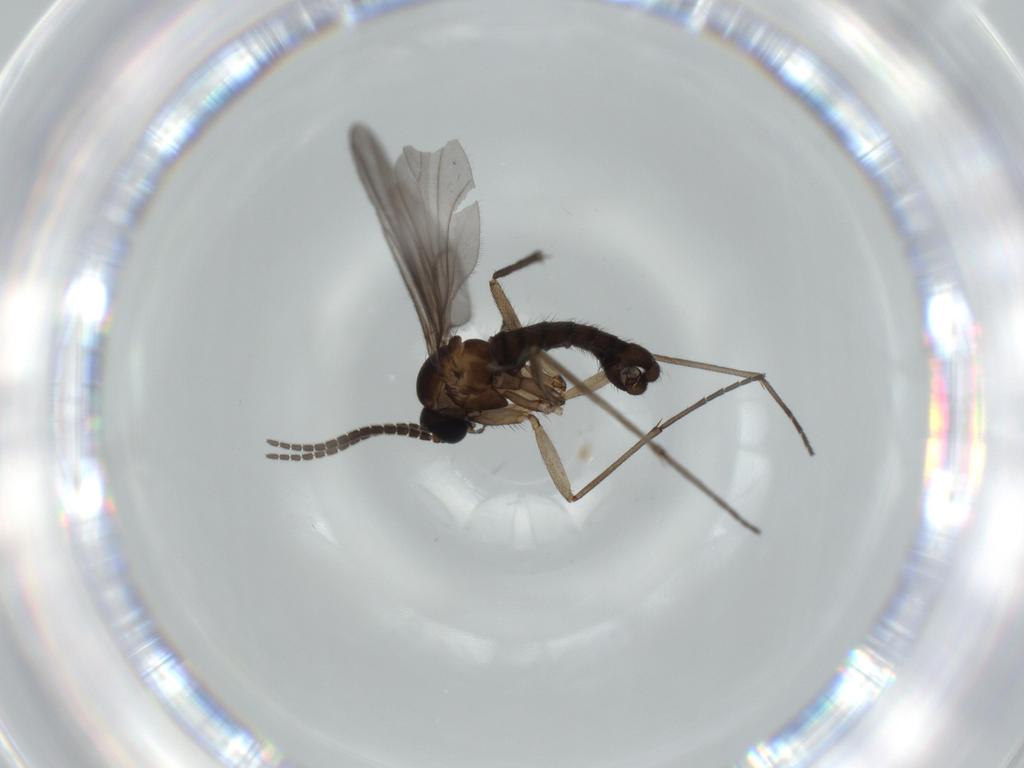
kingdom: Animalia
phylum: Arthropoda
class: Insecta
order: Diptera
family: Sciaridae
